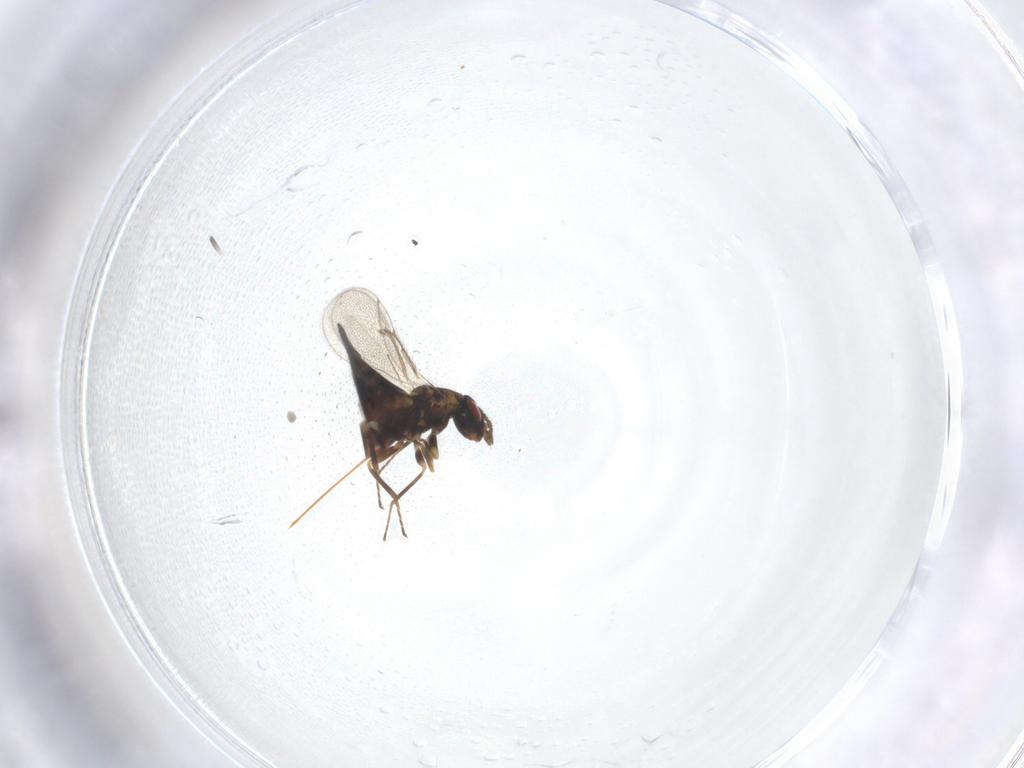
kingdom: Animalia
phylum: Arthropoda
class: Insecta
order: Hymenoptera
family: Eulophidae
